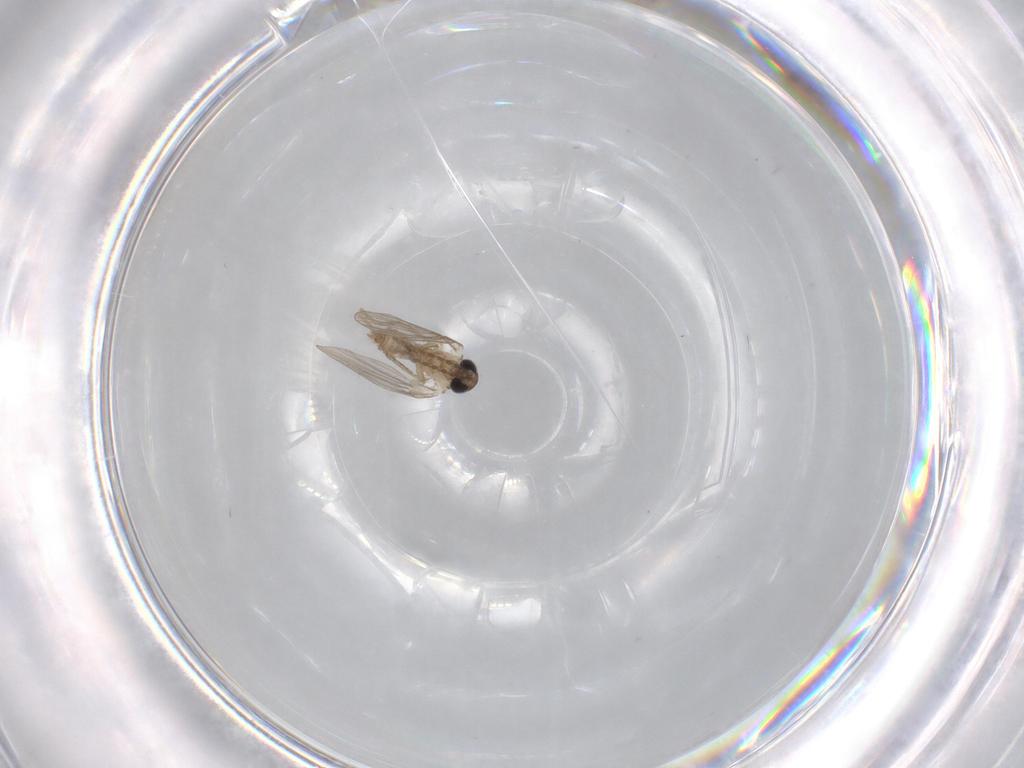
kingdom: Animalia
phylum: Arthropoda
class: Insecta
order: Diptera
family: Psychodidae
